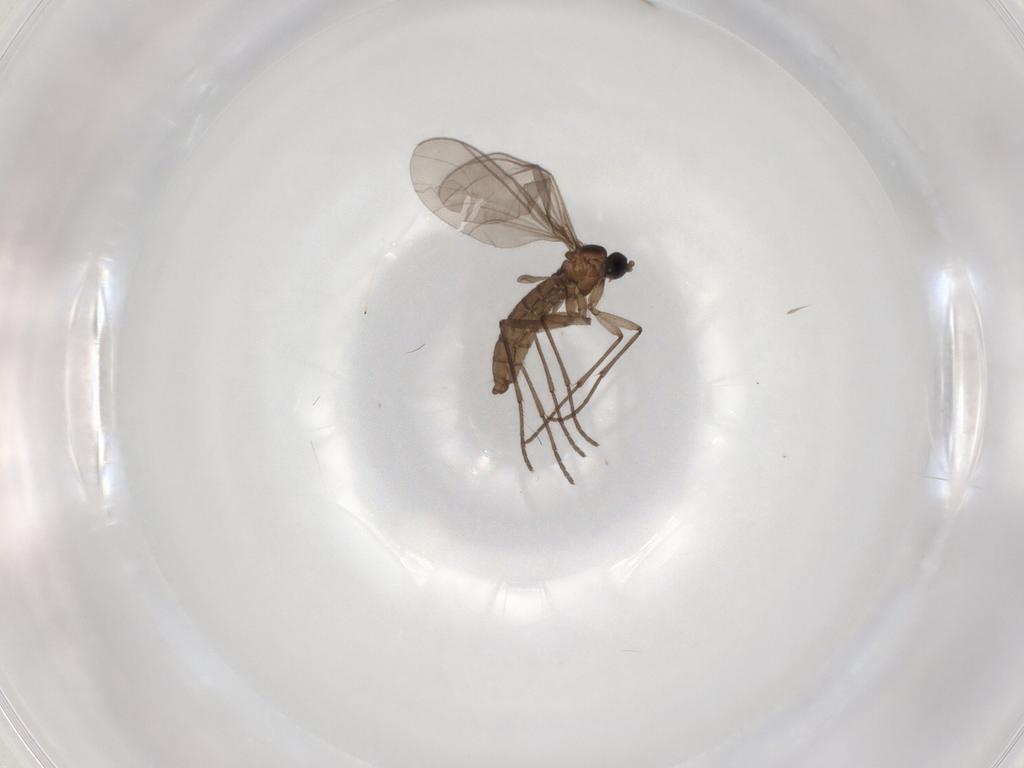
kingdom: Animalia
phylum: Arthropoda
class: Insecta
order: Diptera
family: Sciaridae
